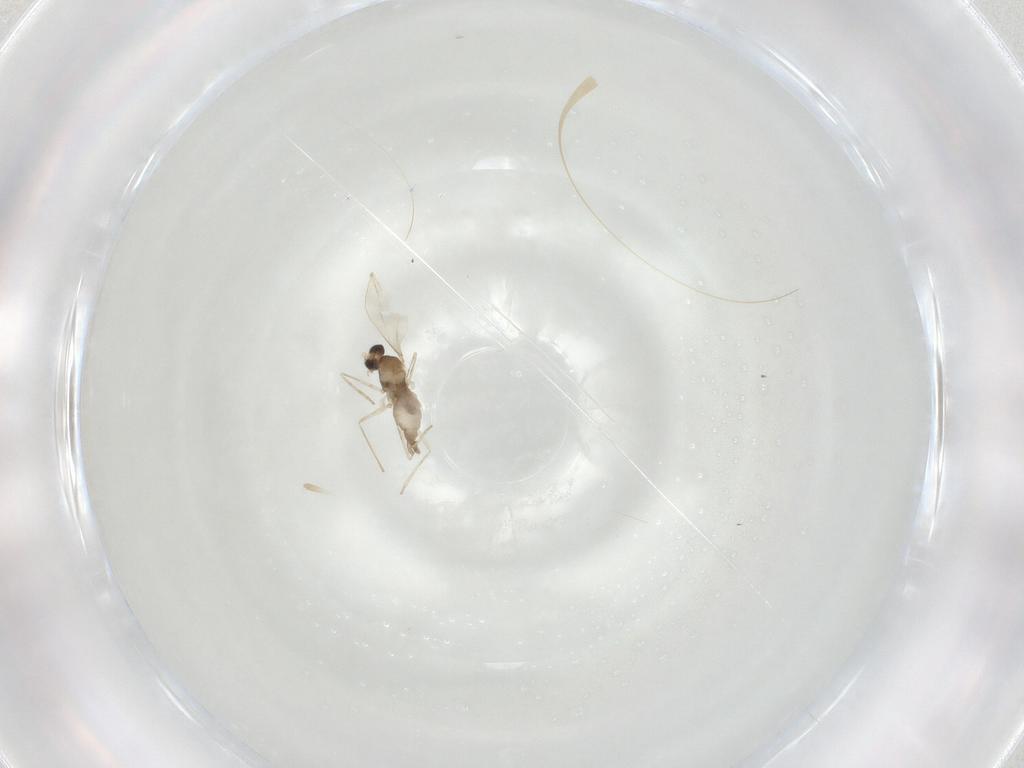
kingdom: Animalia
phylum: Arthropoda
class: Insecta
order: Diptera
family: Cecidomyiidae
